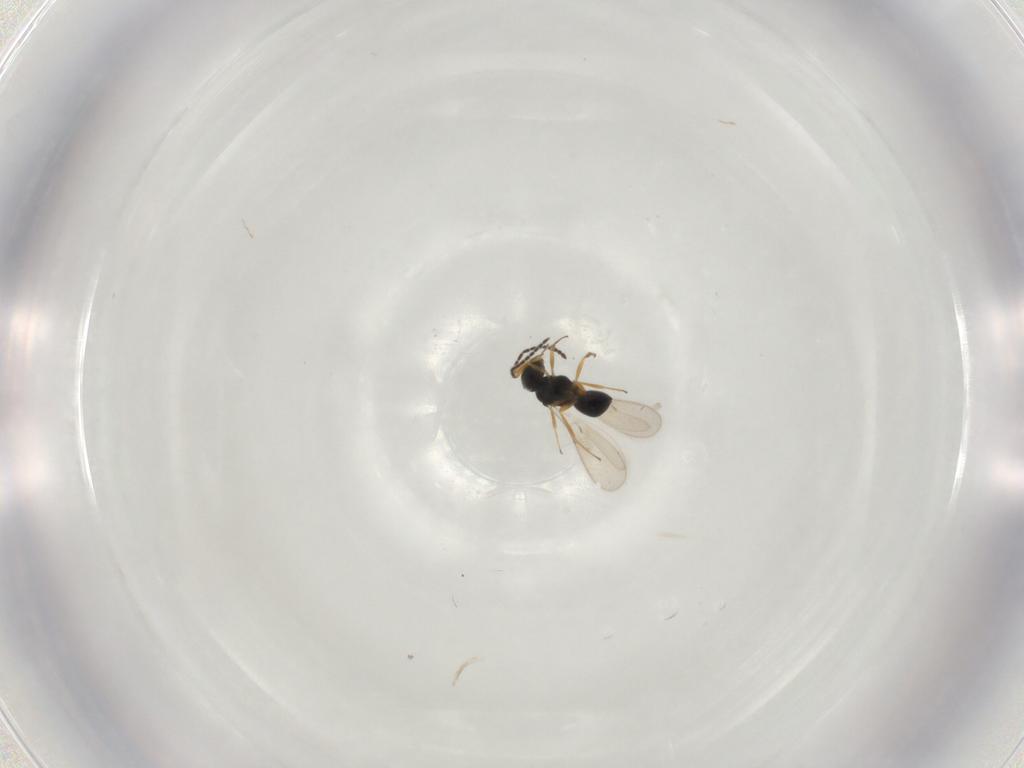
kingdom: Animalia
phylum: Arthropoda
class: Insecta
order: Hymenoptera
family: Scelionidae
